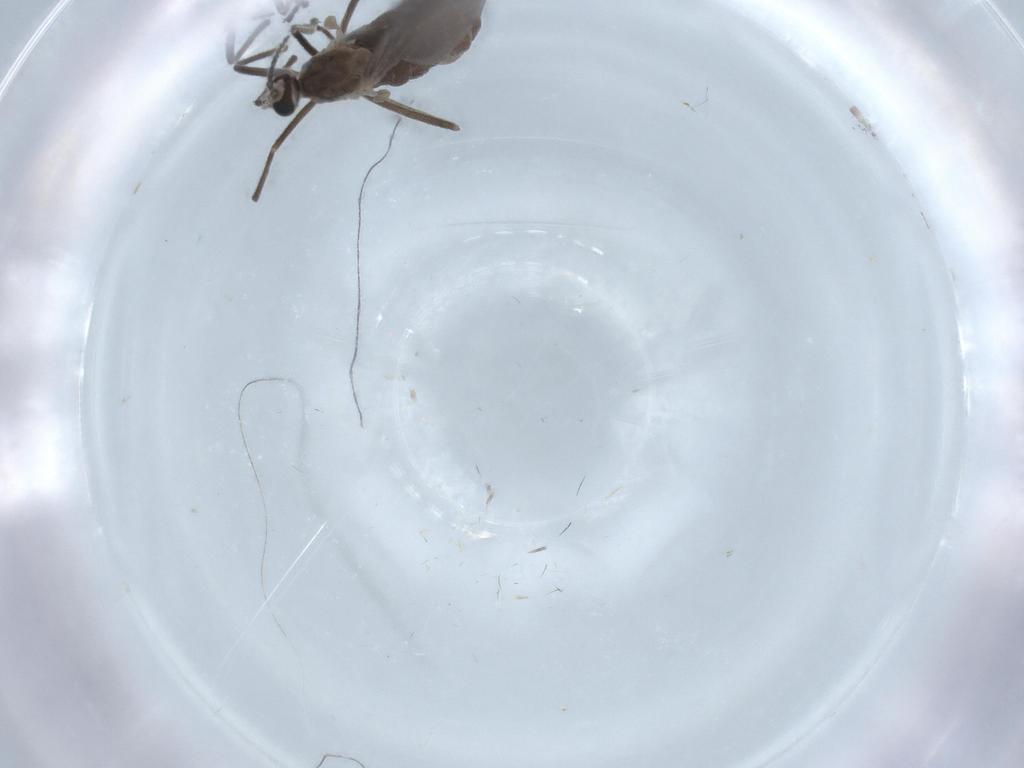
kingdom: Animalia
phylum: Arthropoda
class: Insecta
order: Diptera
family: Cecidomyiidae
